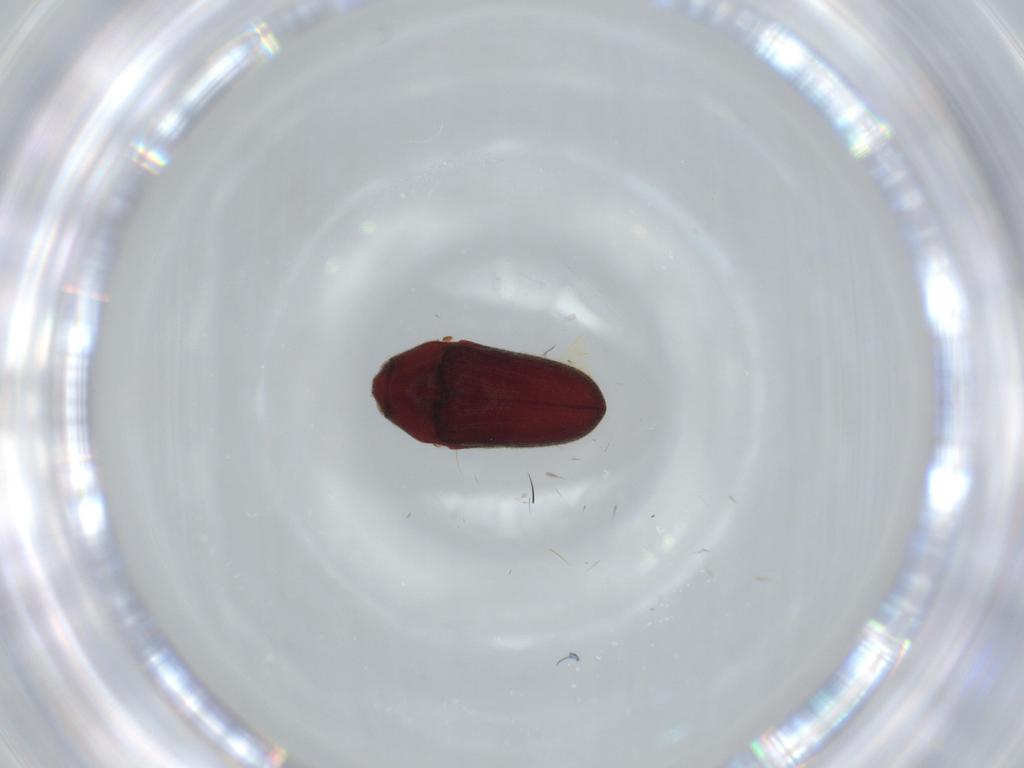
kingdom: Animalia
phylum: Arthropoda
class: Insecta
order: Coleoptera
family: Throscidae
